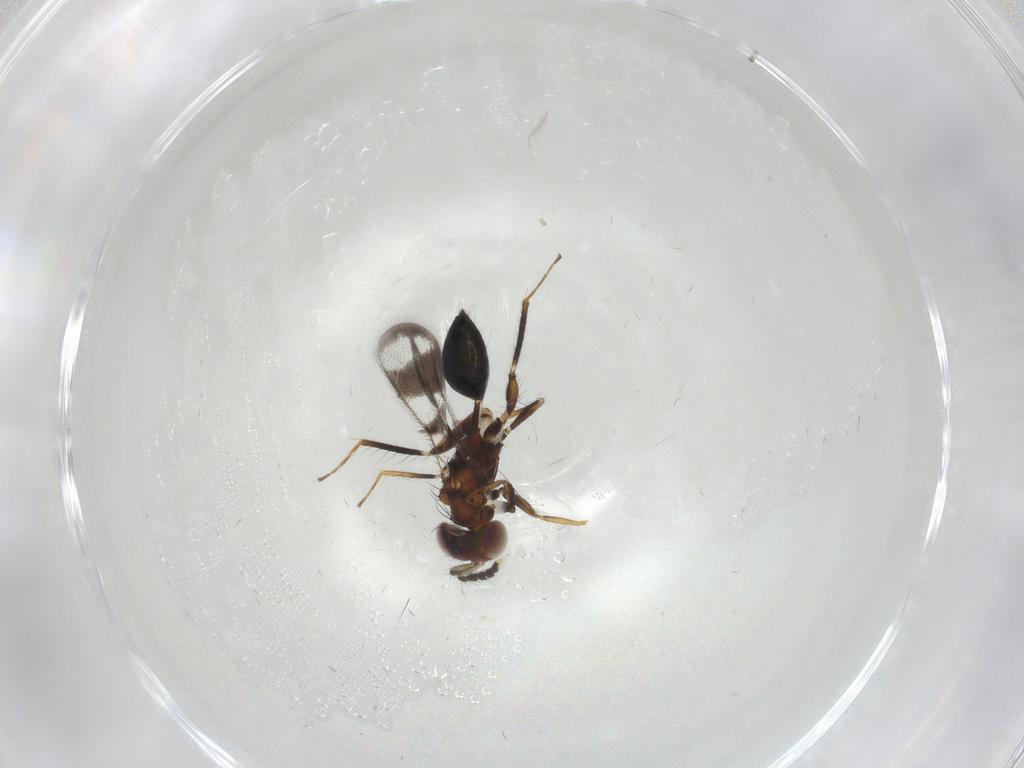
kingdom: Animalia
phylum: Arthropoda
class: Insecta
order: Hymenoptera
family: Eulophidae
